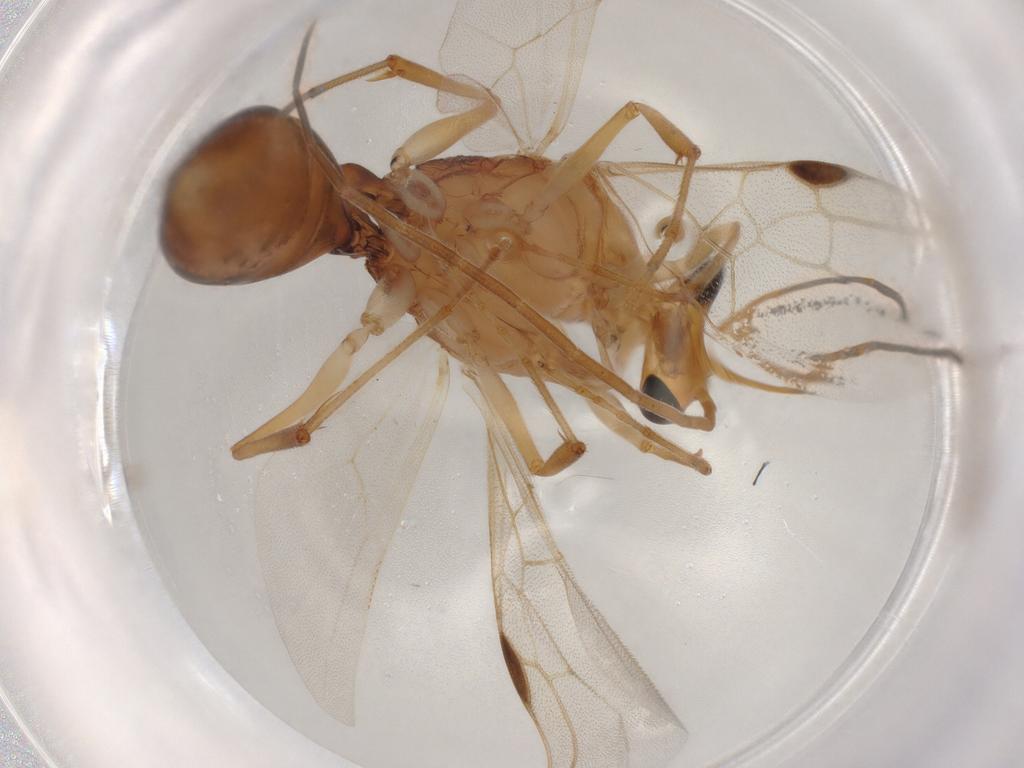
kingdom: Animalia
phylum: Arthropoda
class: Insecta
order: Hymenoptera
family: Formicidae
